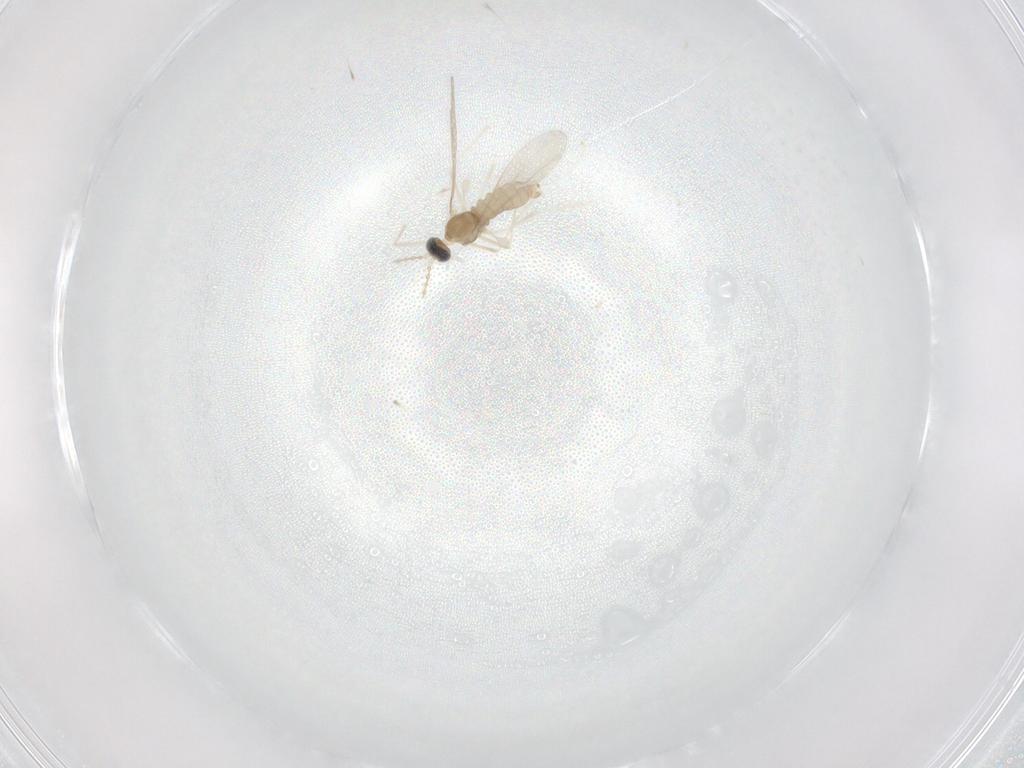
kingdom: Animalia
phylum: Arthropoda
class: Insecta
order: Diptera
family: Cecidomyiidae
